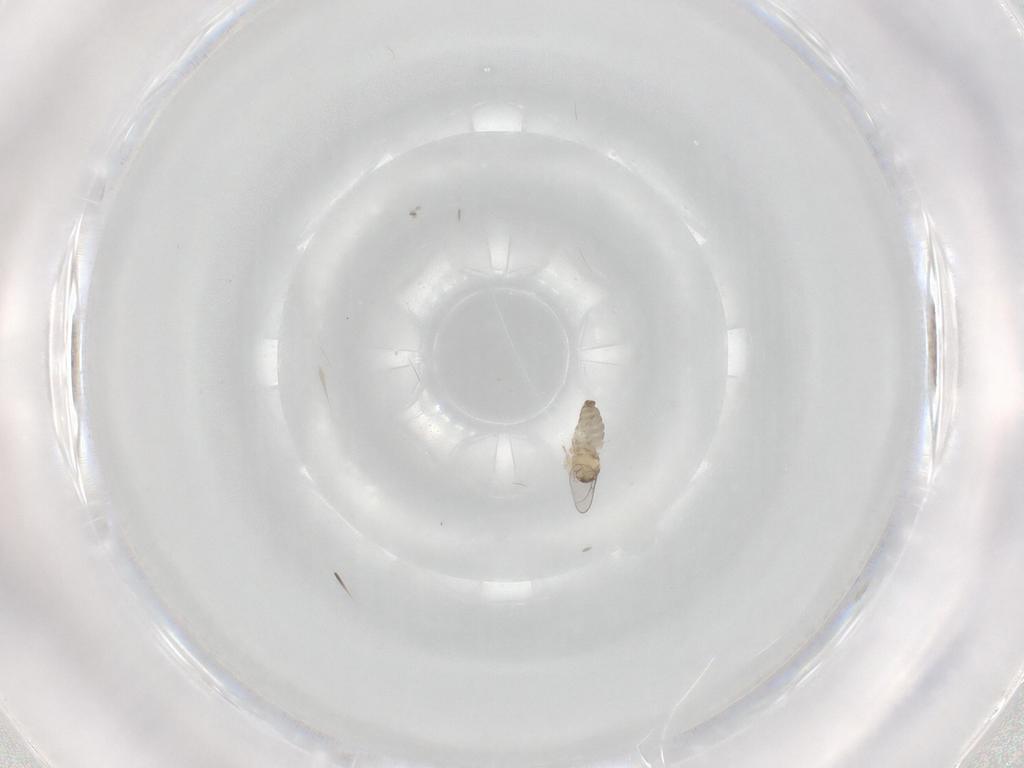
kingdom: Animalia
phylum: Arthropoda
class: Insecta
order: Diptera
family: Cecidomyiidae
